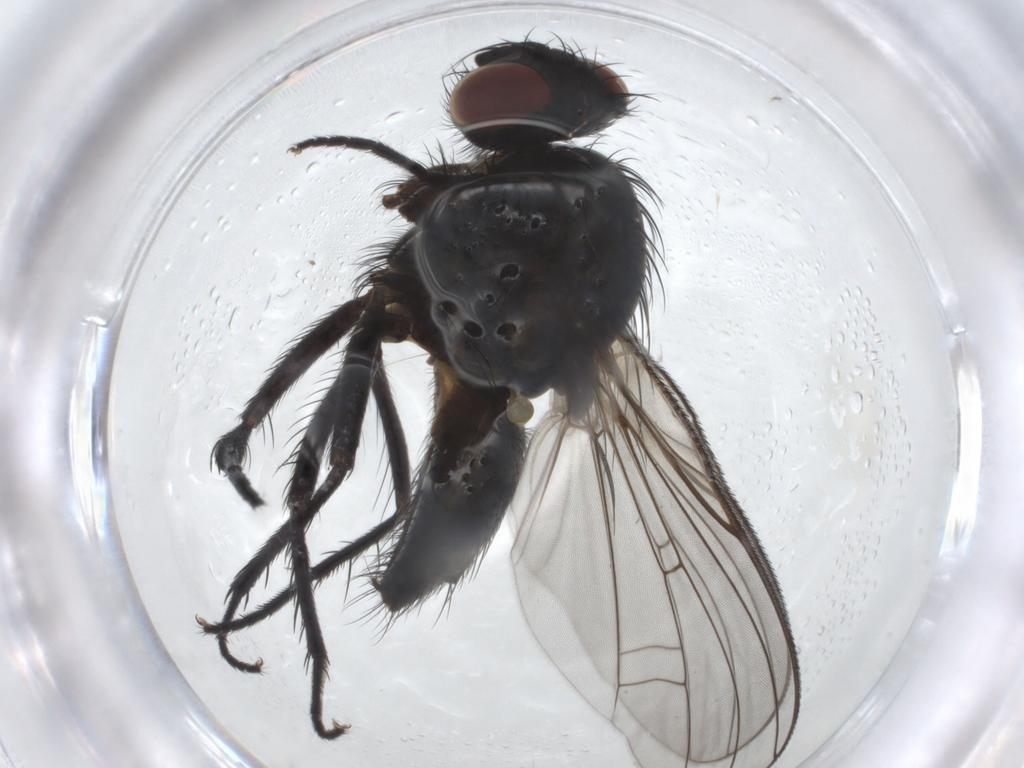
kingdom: Animalia
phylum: Arthropoda
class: Insecta
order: Diptera
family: Anthomyiidae
